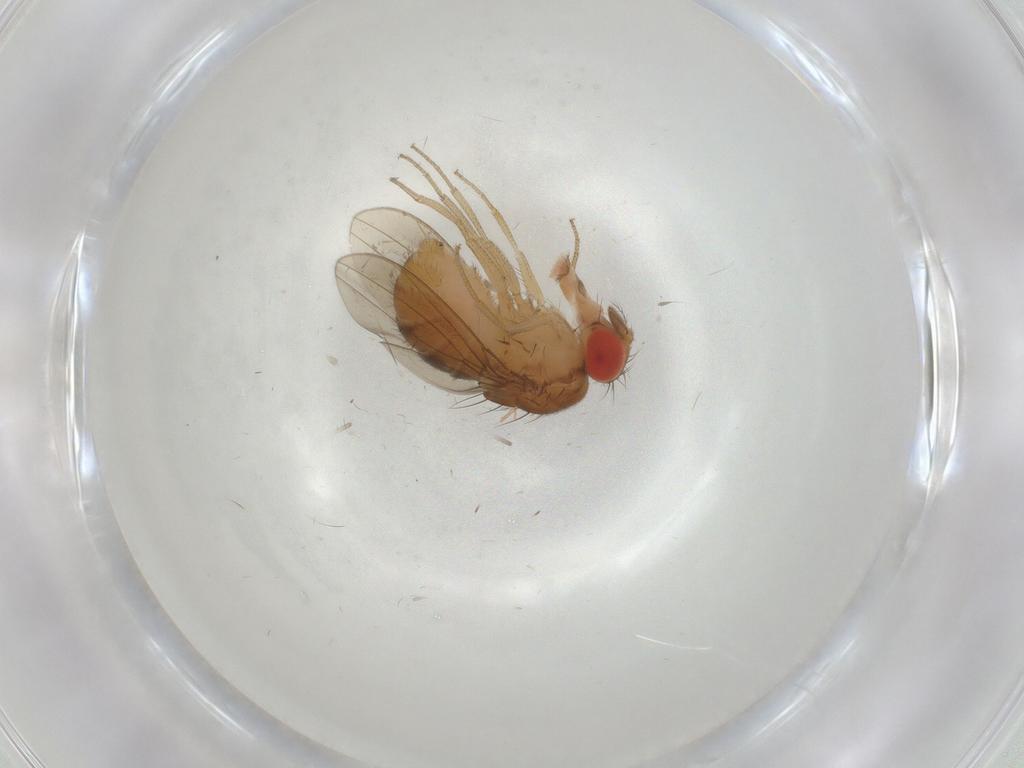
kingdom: Animalia
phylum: Arthropoda
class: Insecta
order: Diptera
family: Drosophilidae
